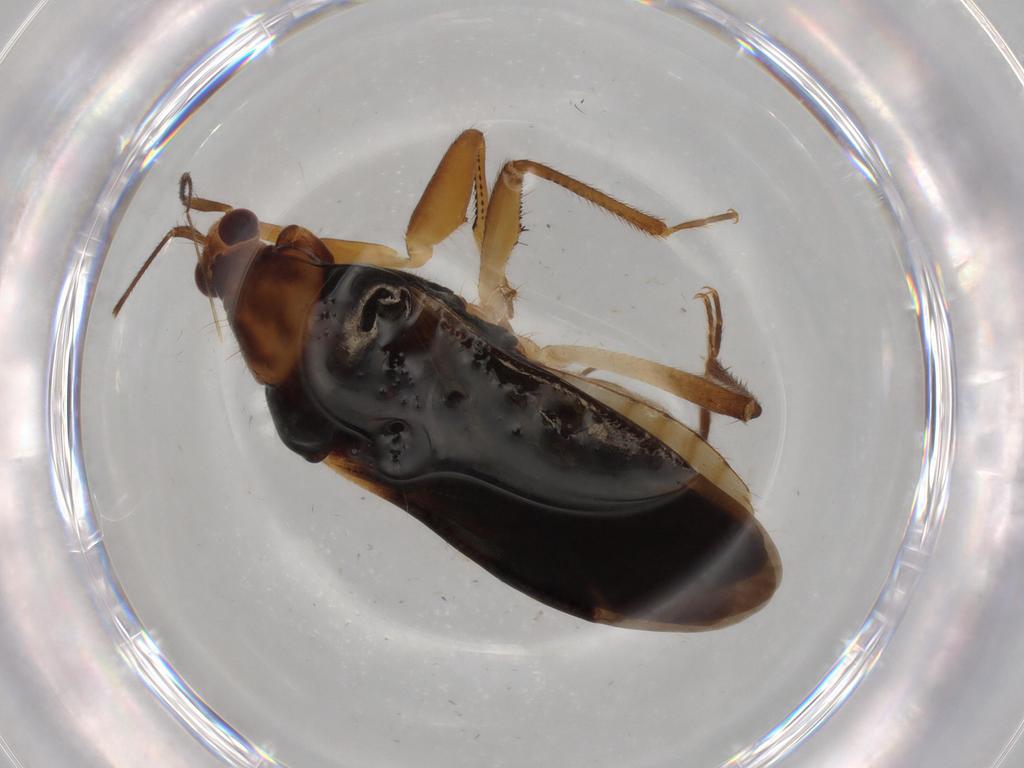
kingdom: Animalia
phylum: Arthropoda
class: Insecta
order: Hemiptera
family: Nabidae
